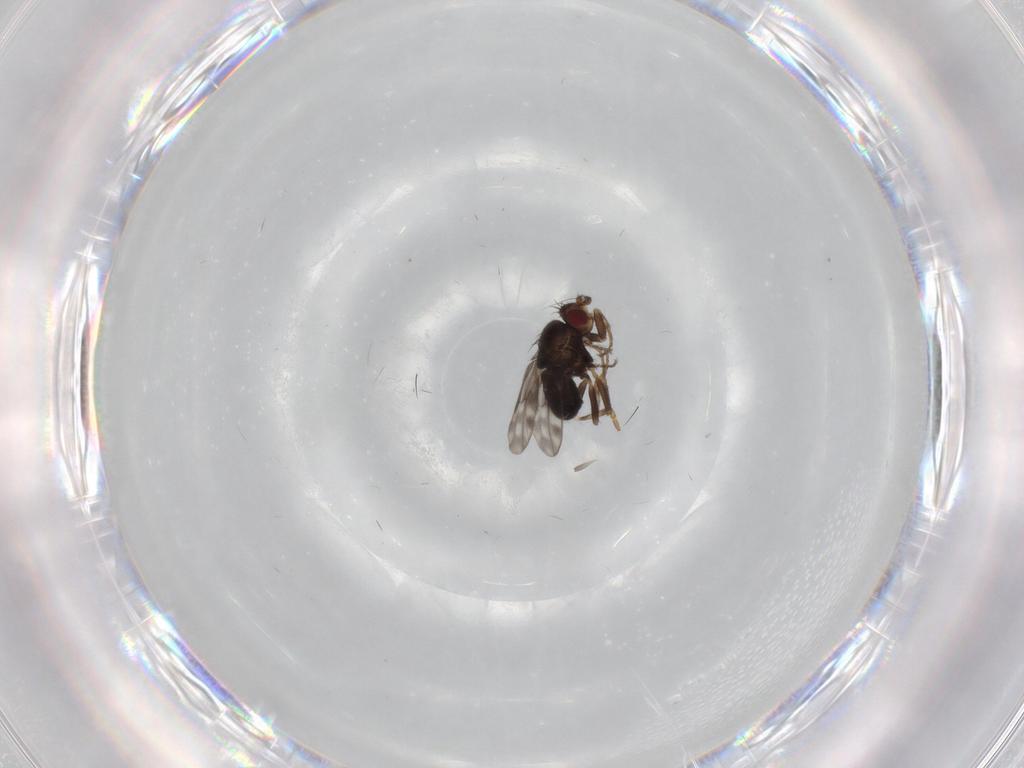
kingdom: Animalia
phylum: Arthropoda
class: Insecta
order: Diptera
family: Sphaeroceridae
